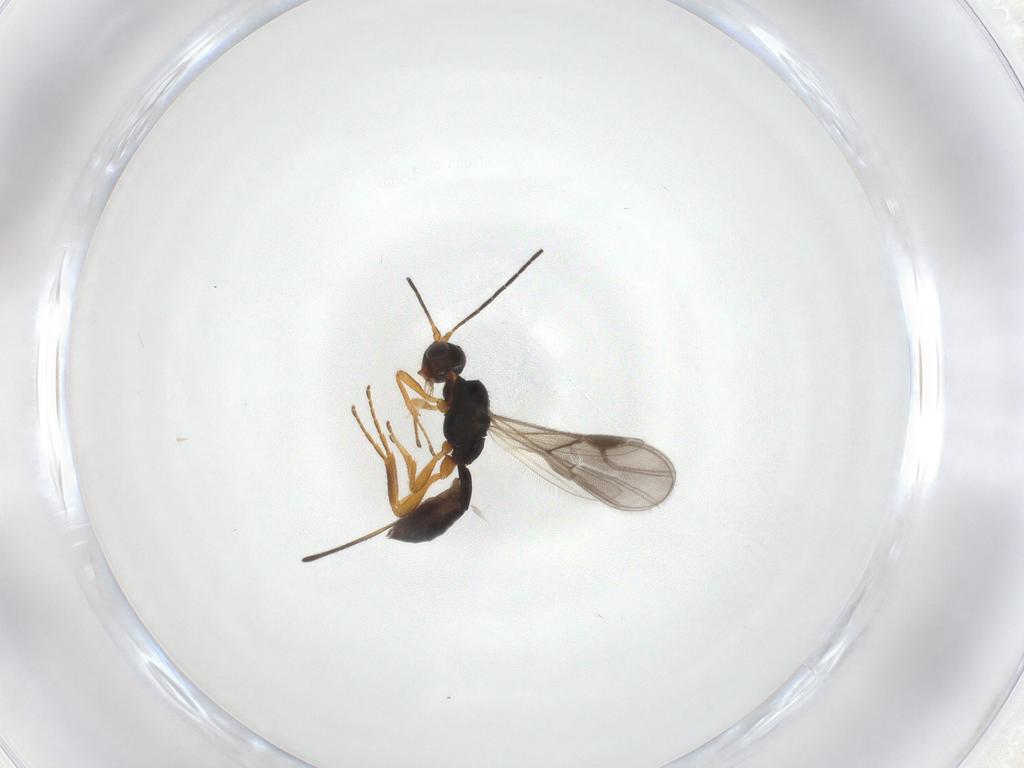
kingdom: Animalia
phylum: Arthropoda
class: Insecta
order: Hymenoptera
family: Braconidae
